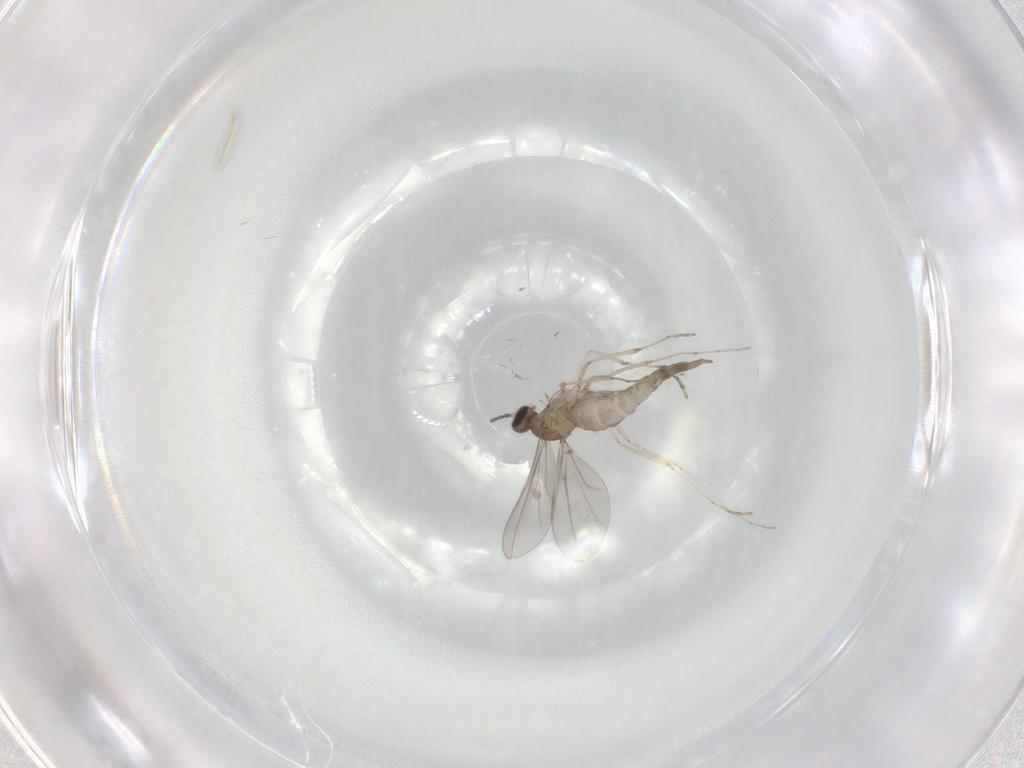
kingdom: Animalia
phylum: Arthropoda
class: Insecta
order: Diptera
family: Cecidomyiidae
